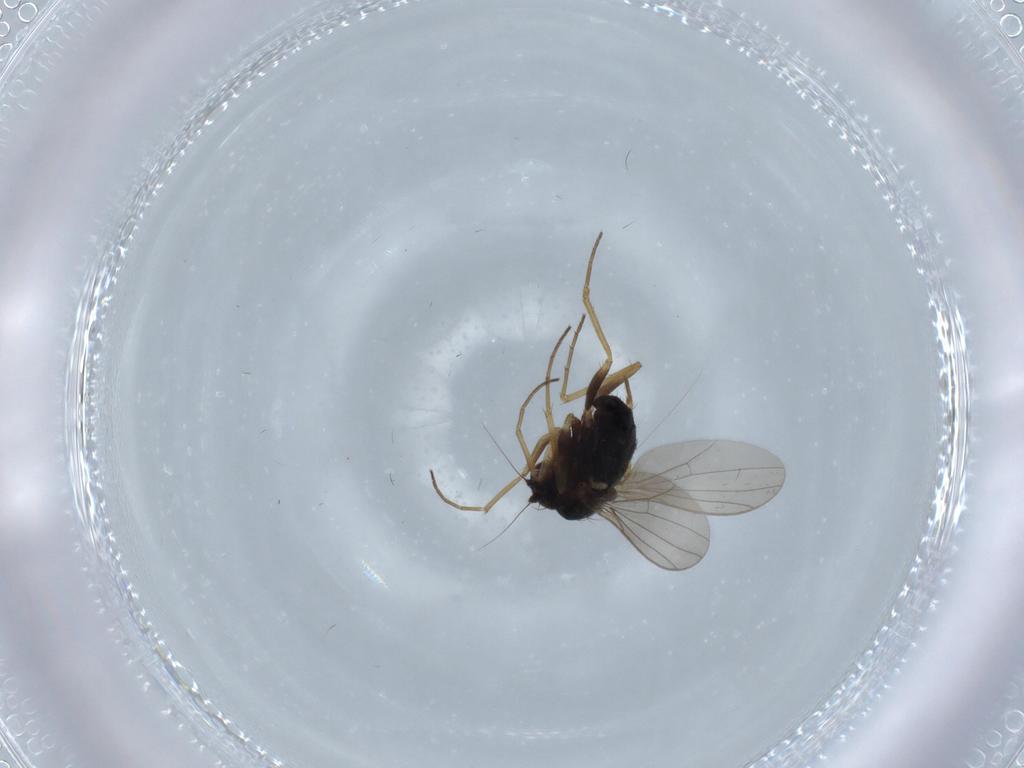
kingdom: Animalia
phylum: Arthropoda
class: Insecta
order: Diptera
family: Dolichopodidae
